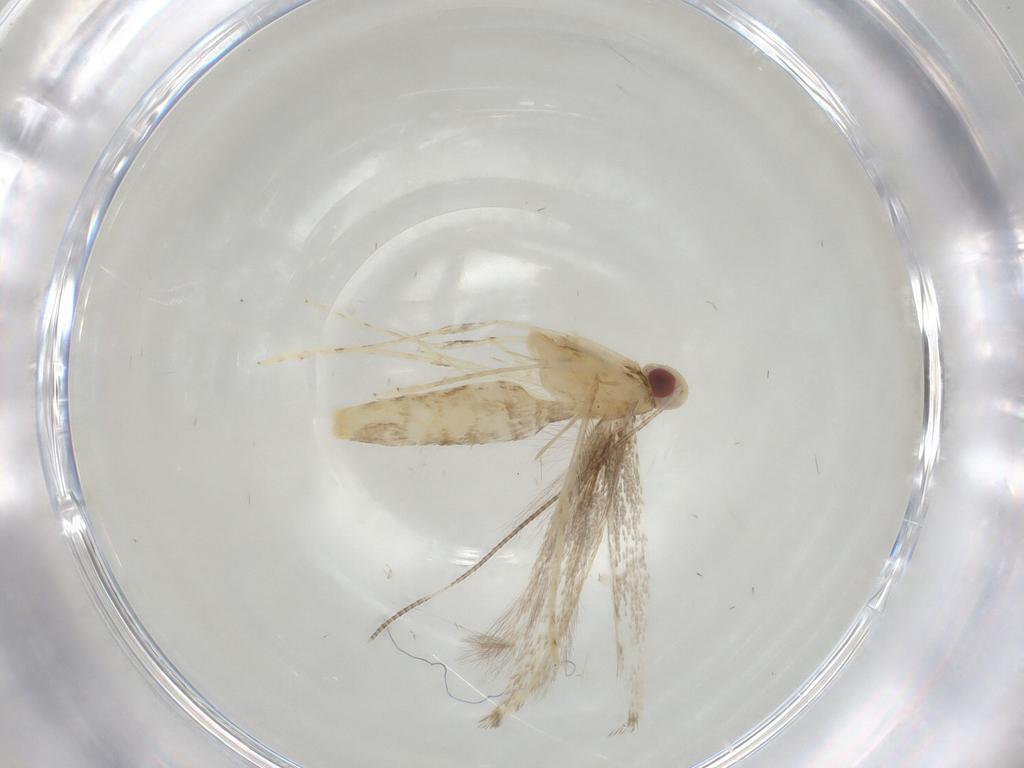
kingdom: Animalia
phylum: Arthropoda
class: Insecta
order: Lepidoptera
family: Gracillariidae
